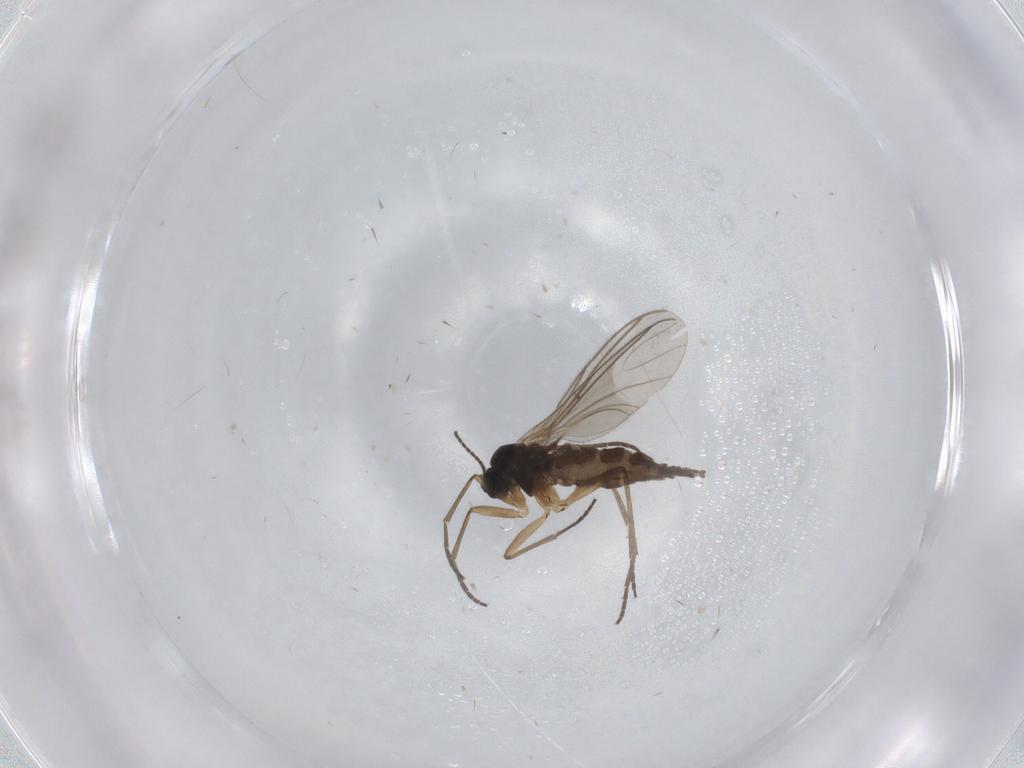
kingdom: Animalia
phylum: Arthropoda
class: Insecta
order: Diptera
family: Sciaridae
